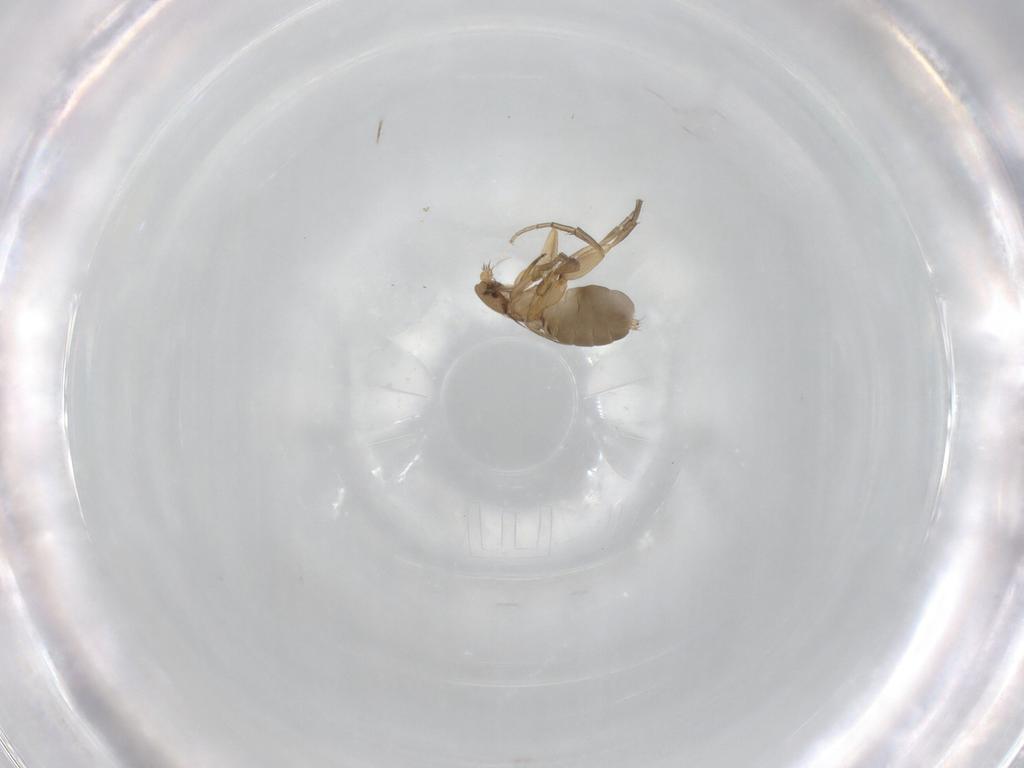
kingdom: Animalia
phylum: Arthropoda
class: Insecta
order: Diptera
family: Phoridae
